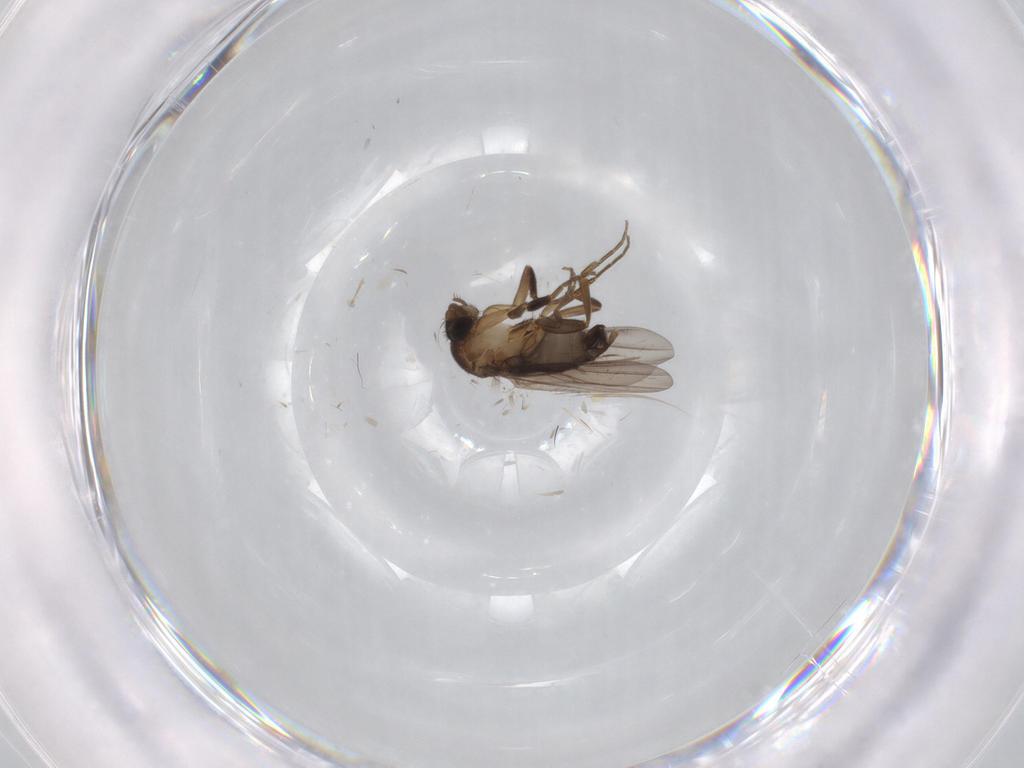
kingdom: Animalia
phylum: Arthropoda
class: Insecta
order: Diptera
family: Phoridae
